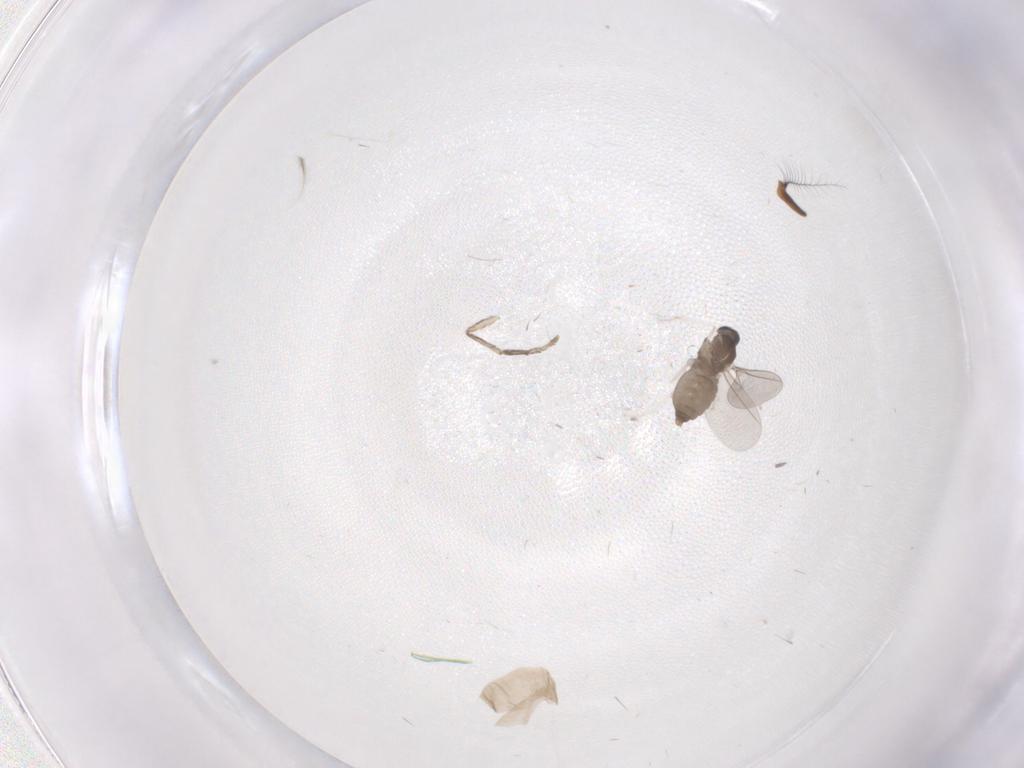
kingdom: Animalia
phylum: Arthropoda
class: Insecta
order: Diptera
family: Cecidomyiidae
